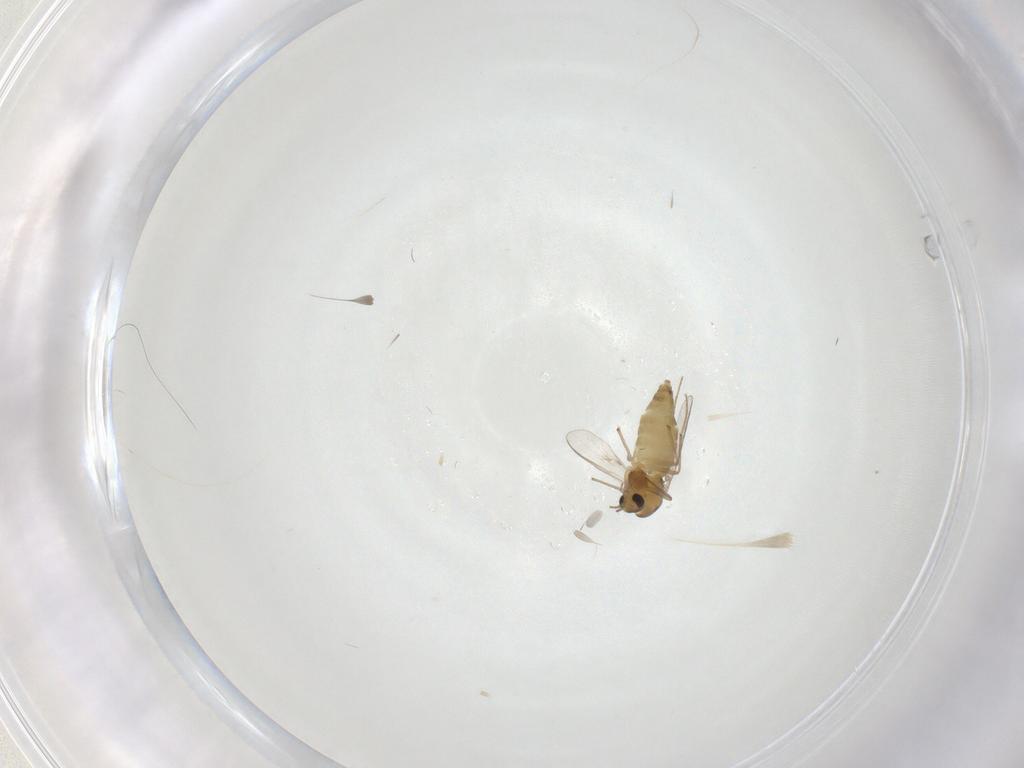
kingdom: Animalia
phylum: Arthropoda
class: Insecta
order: Diptera
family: Chironomidae
